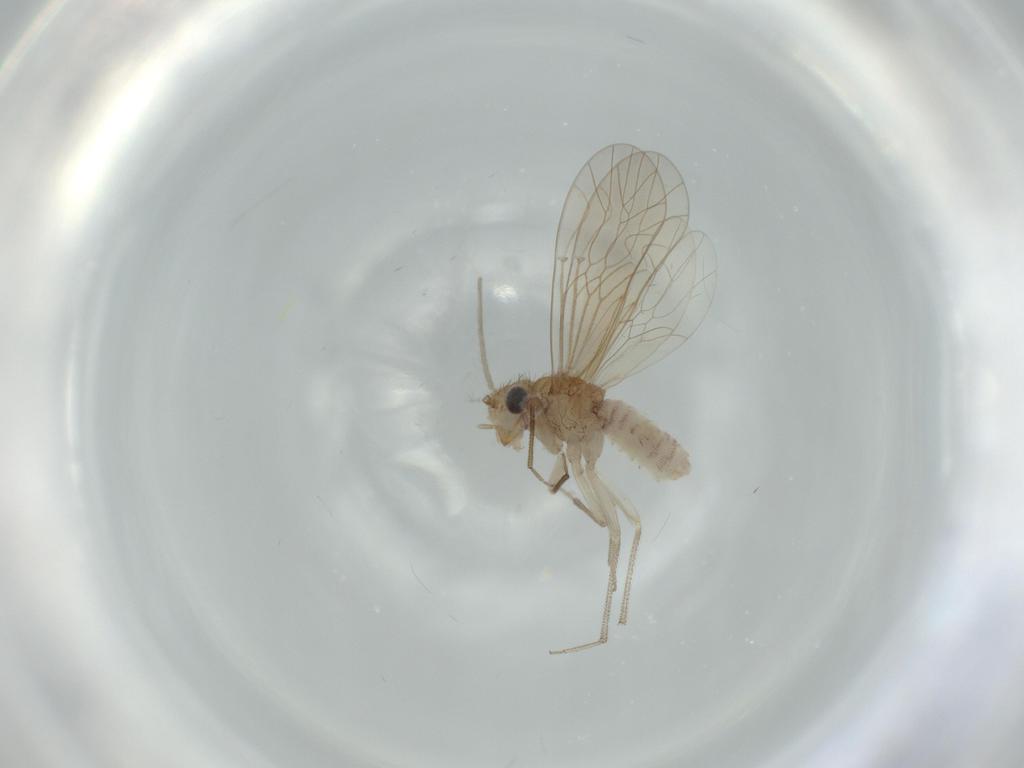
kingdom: Animalia
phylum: Arthropoda
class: Insecta
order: Psocodea
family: Caeciliusidae
